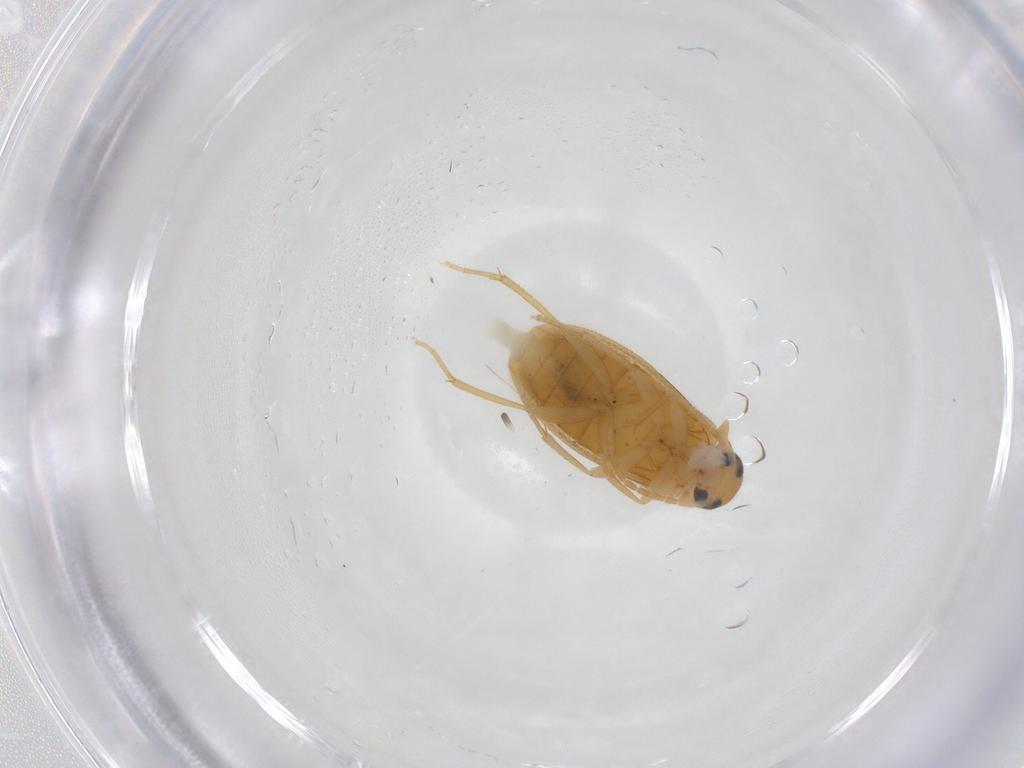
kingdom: Animalia
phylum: Arthropoda
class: Insecta
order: Coleoptera
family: Scraptiidae
